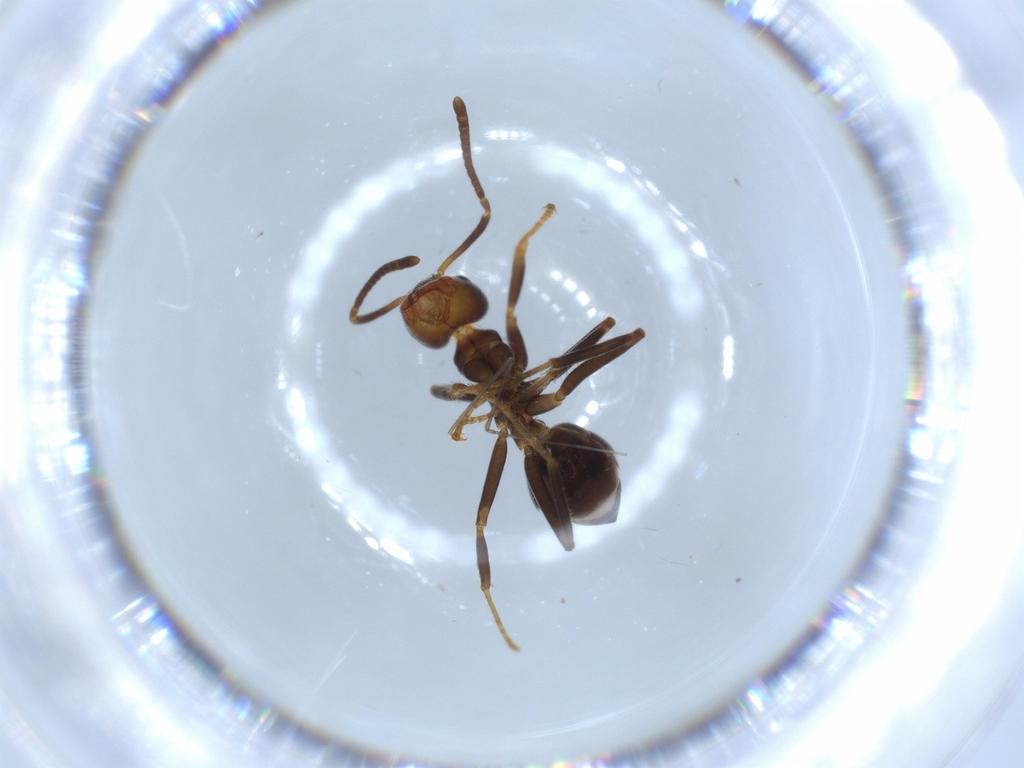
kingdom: Animalia
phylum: Arthropoda
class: Insecta
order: Hymenoptera
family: Formicidae
